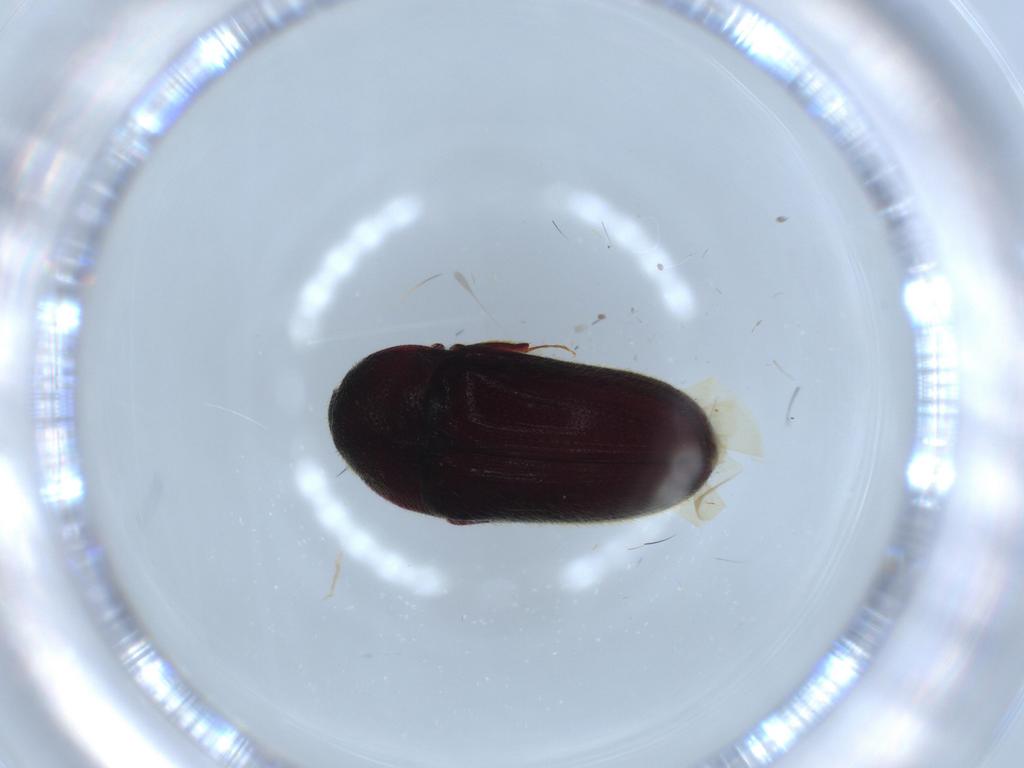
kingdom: Animalia
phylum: Arthropoda
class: Insecta
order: Coleoptera
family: Throscidae
